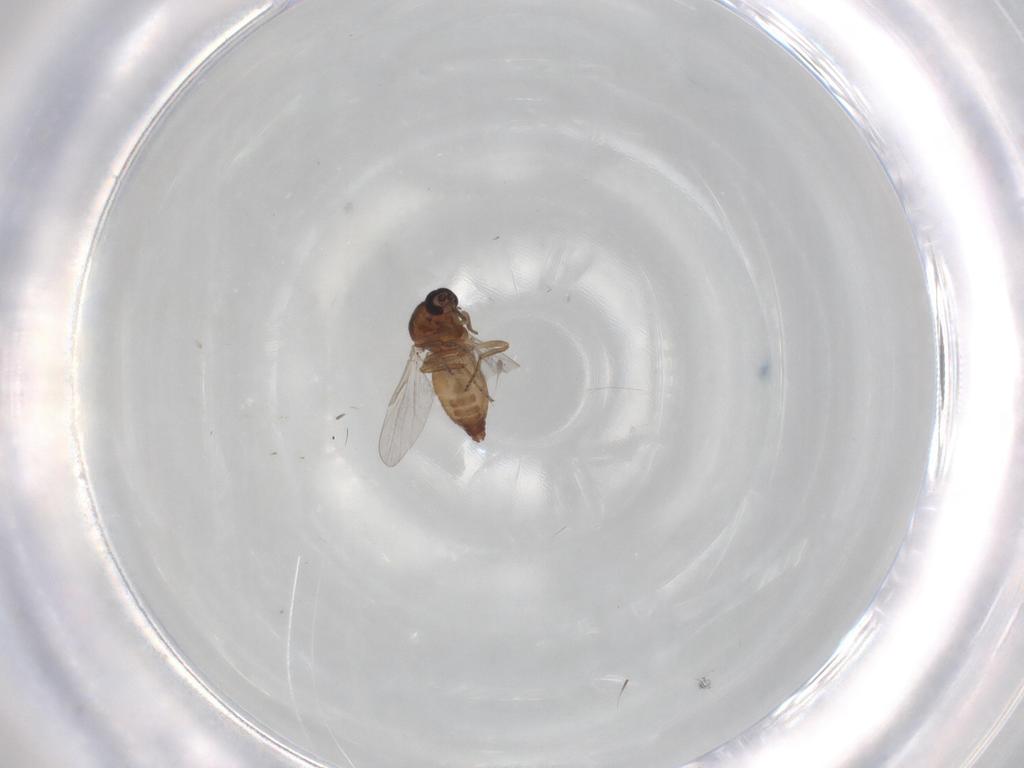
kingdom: Animalia
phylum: Arthropoda
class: Insecta
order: Diptera
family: Ceratopogonidae
